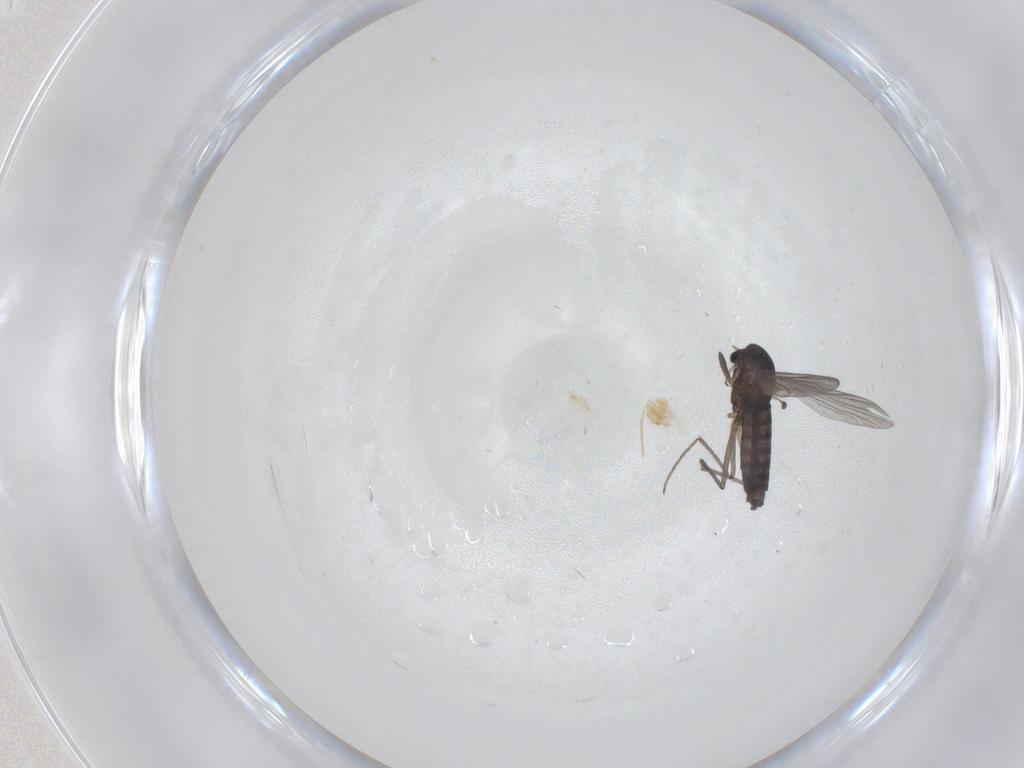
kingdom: Animalia
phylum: Arthropoda
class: Insecta
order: Diptera
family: Chironomidae
